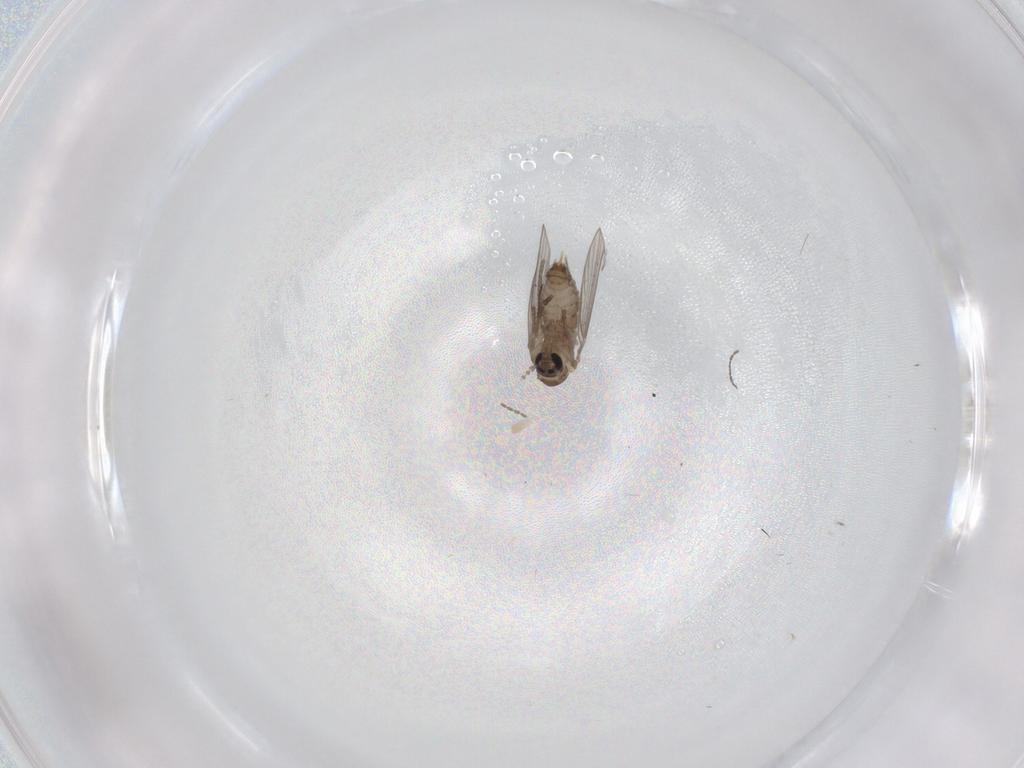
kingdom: Animalia
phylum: Arthropoda
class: Insecta
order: Diptera
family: Psychodidae
